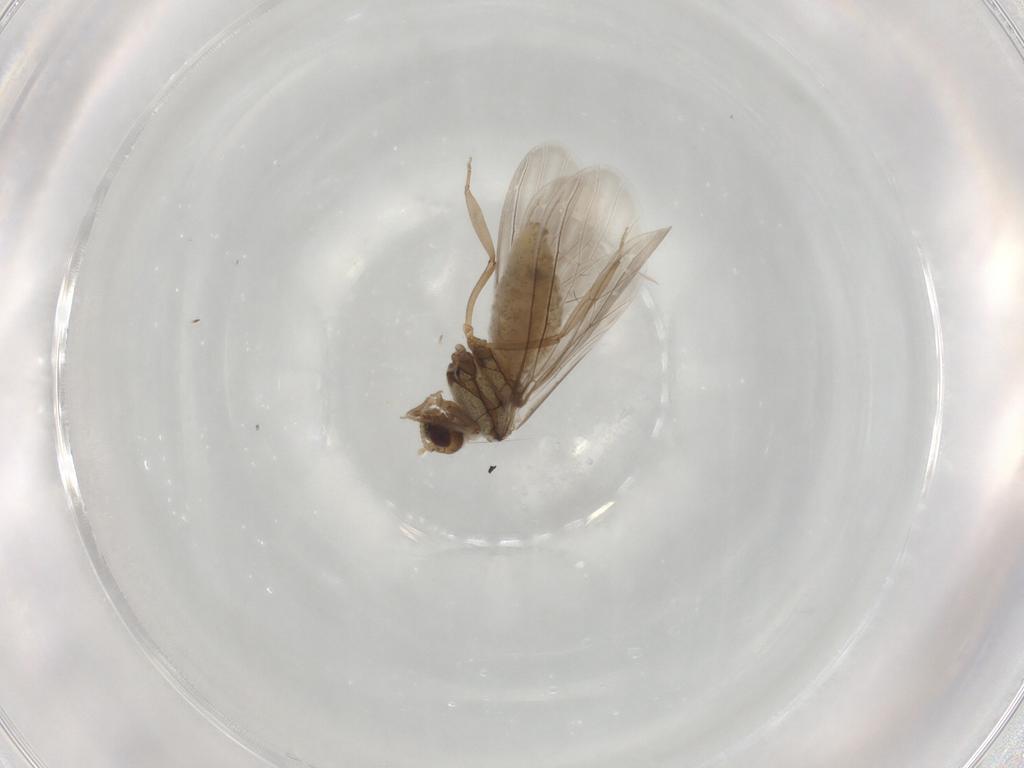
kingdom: Animalia
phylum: Arthropoda
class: Insecta
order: Neuroptera
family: Coniopterygidae
